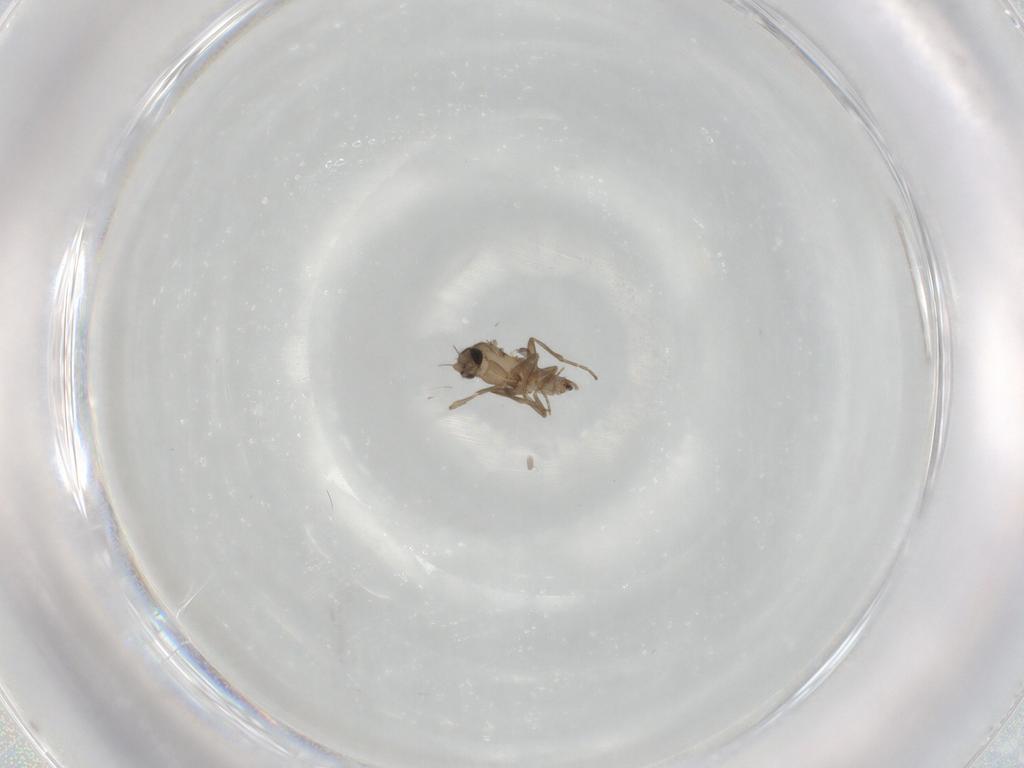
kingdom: Animalia
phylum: Arthropoda
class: Insecta
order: Diptera
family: Cecidomyiidae
